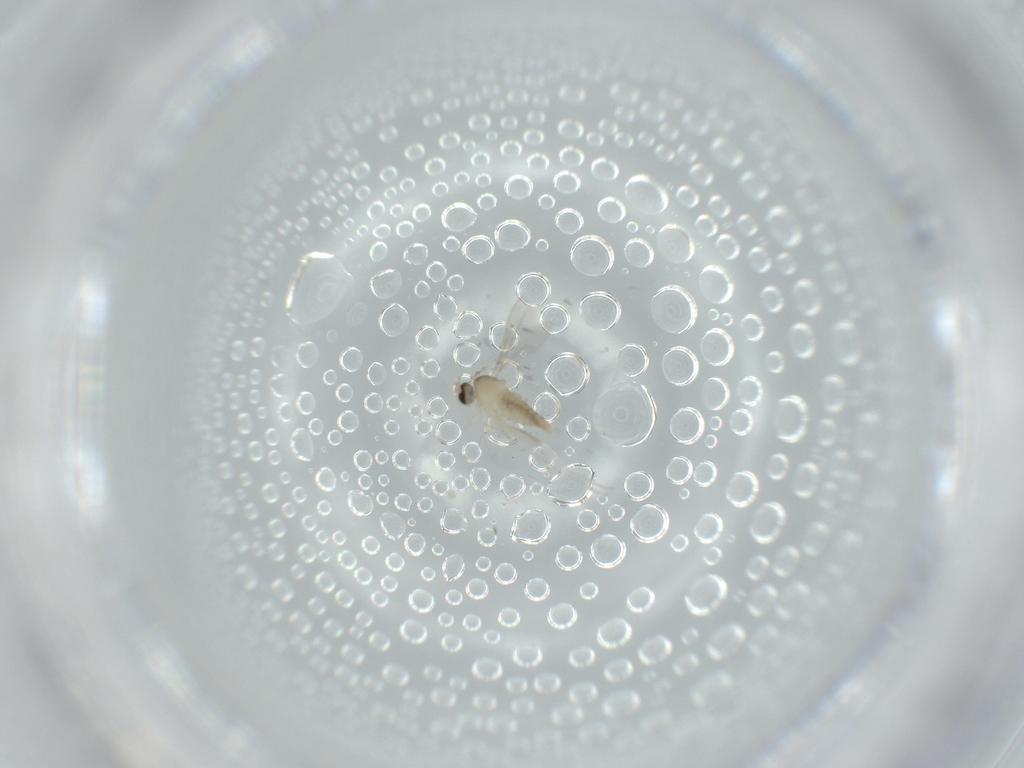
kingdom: Animalia
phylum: Arthropoda
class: Insecta
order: Diptera
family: Cecidomyiidae
